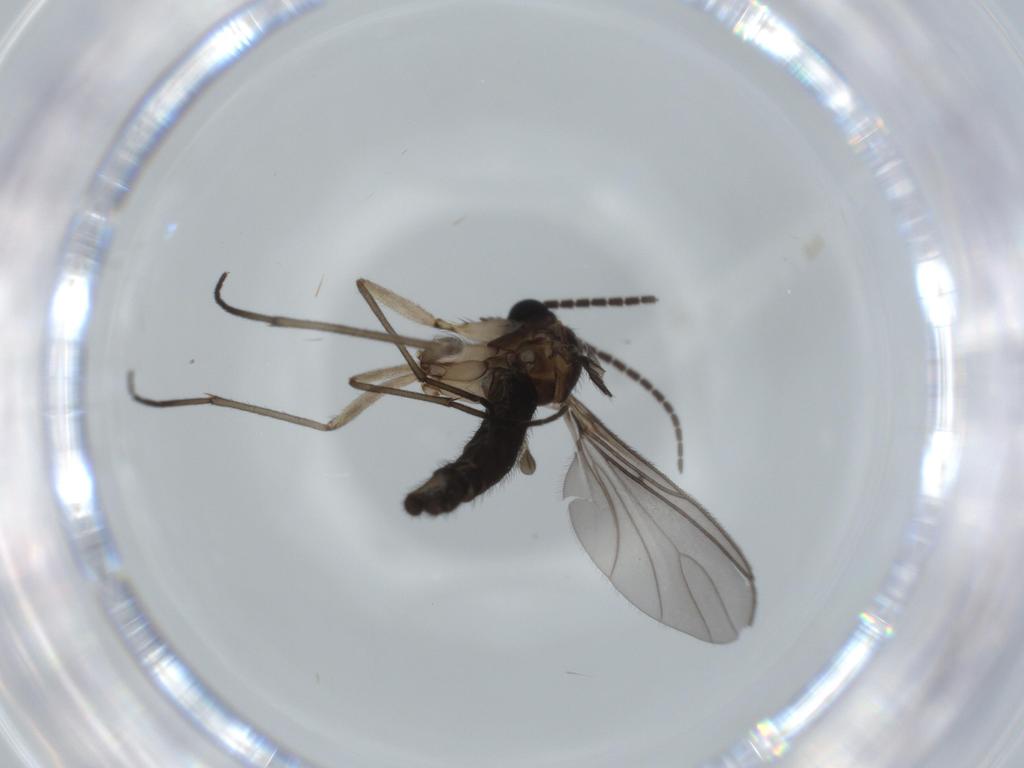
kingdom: Animalia
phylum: Arthropoda
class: Insecta
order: Diptera
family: Sciaridae
